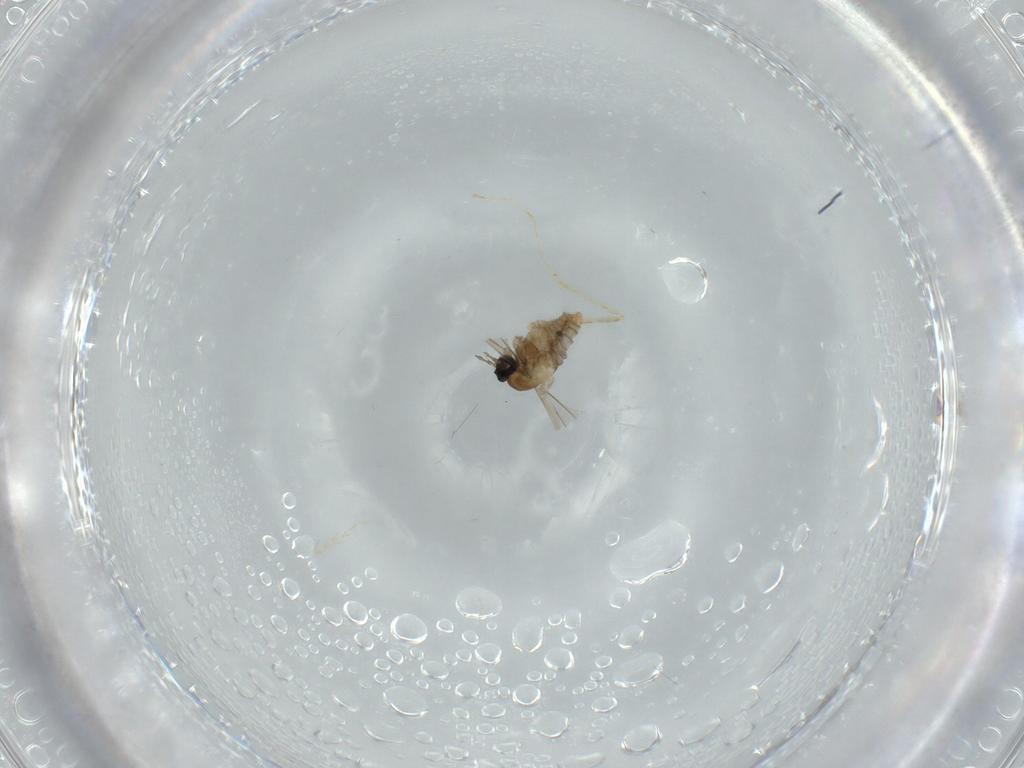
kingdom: Animalia
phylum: Arthropoda
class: Insecta
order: Diptera
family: Cecidomyiidae
